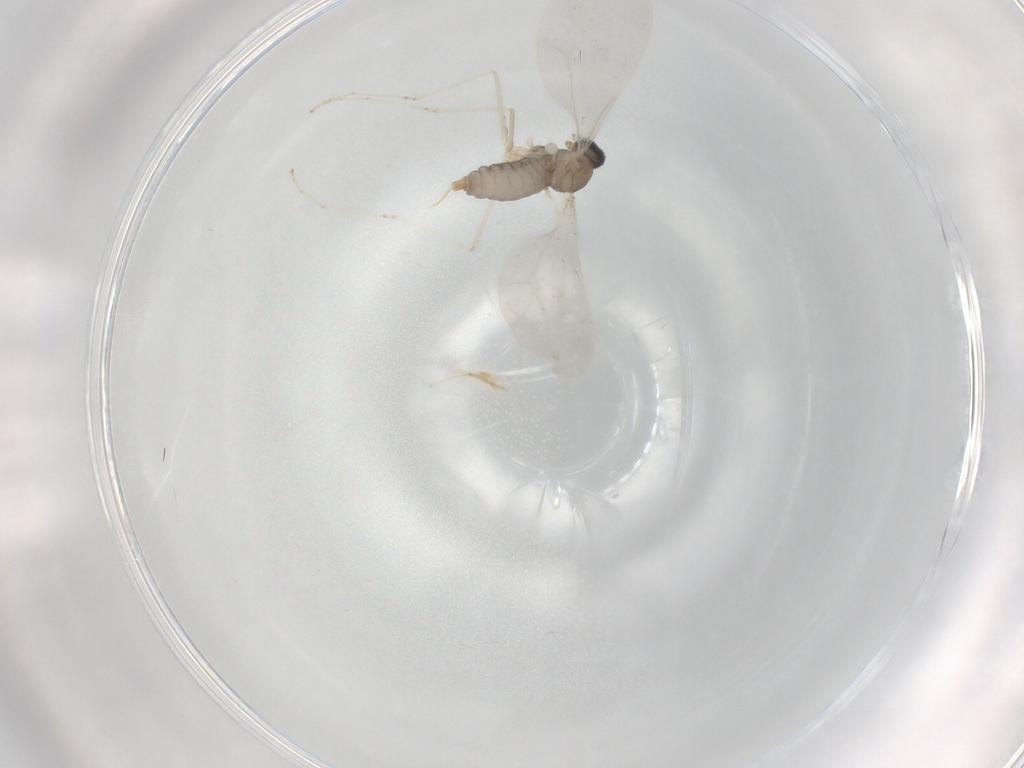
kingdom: Animalia
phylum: Arthropoda
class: Insecta
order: Diptera
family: Cecidomyiidae
